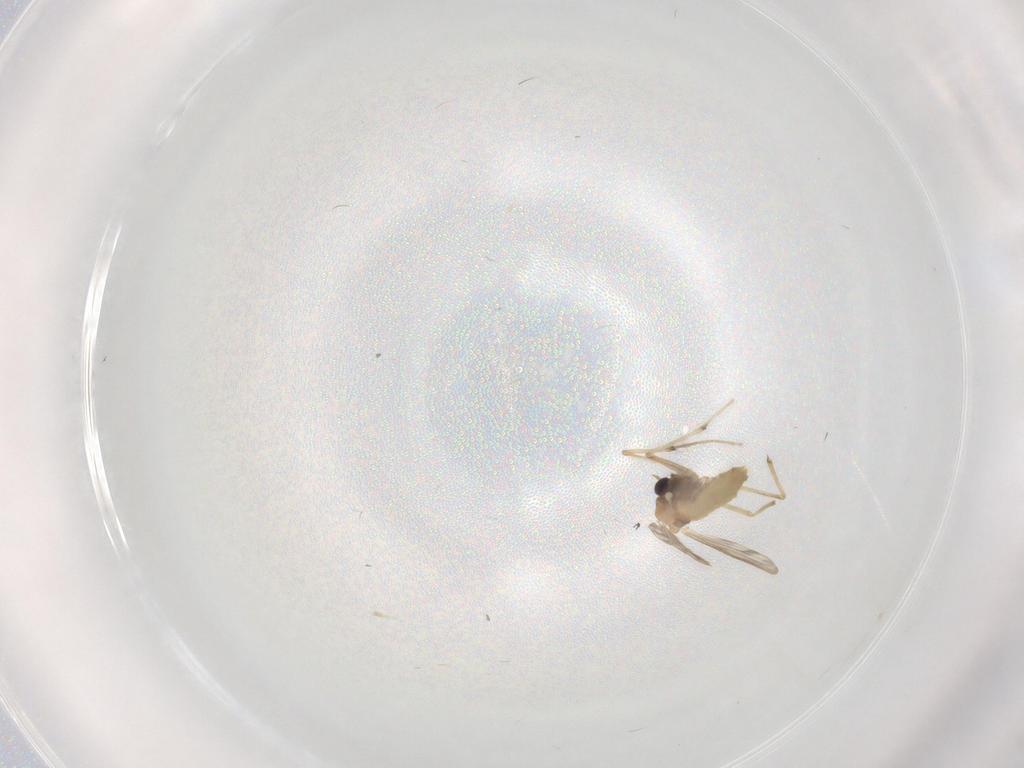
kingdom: Animalia
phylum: Arthropoda
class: Insecta
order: Diptera
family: Chironomidae
